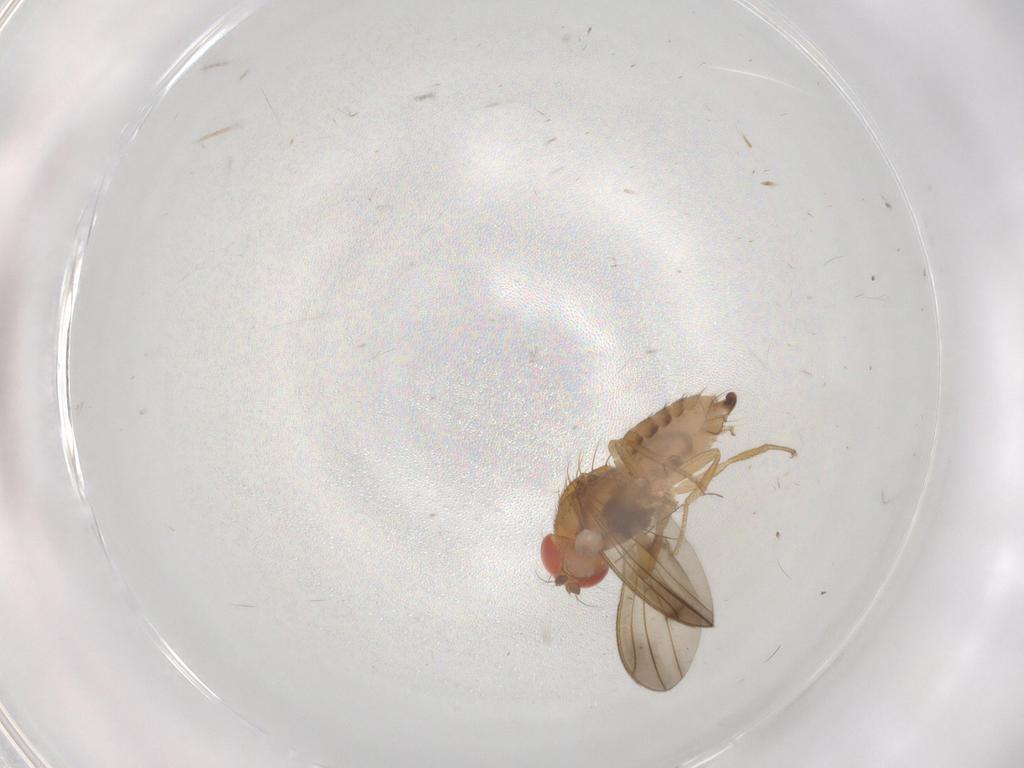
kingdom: Animalia
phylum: Arthropoda
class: Insecta
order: Diptera
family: Drosophilidae
